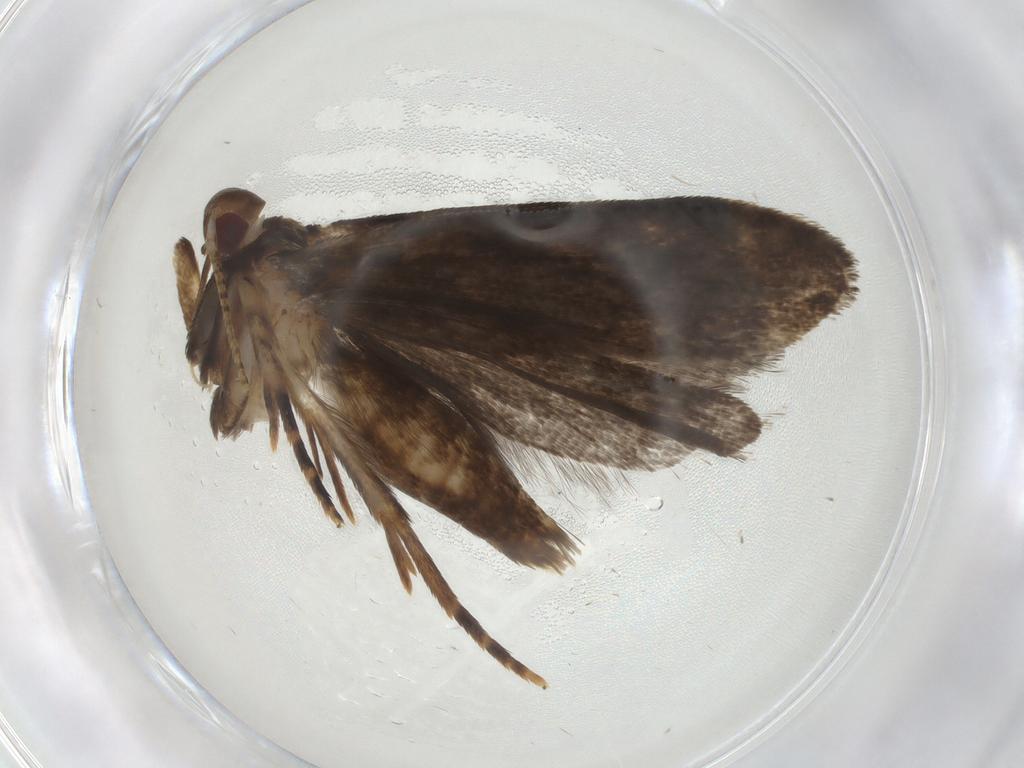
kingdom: Animalia
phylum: Arthropoda
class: Insecta
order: Lepidoptera
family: Gelechiidae
